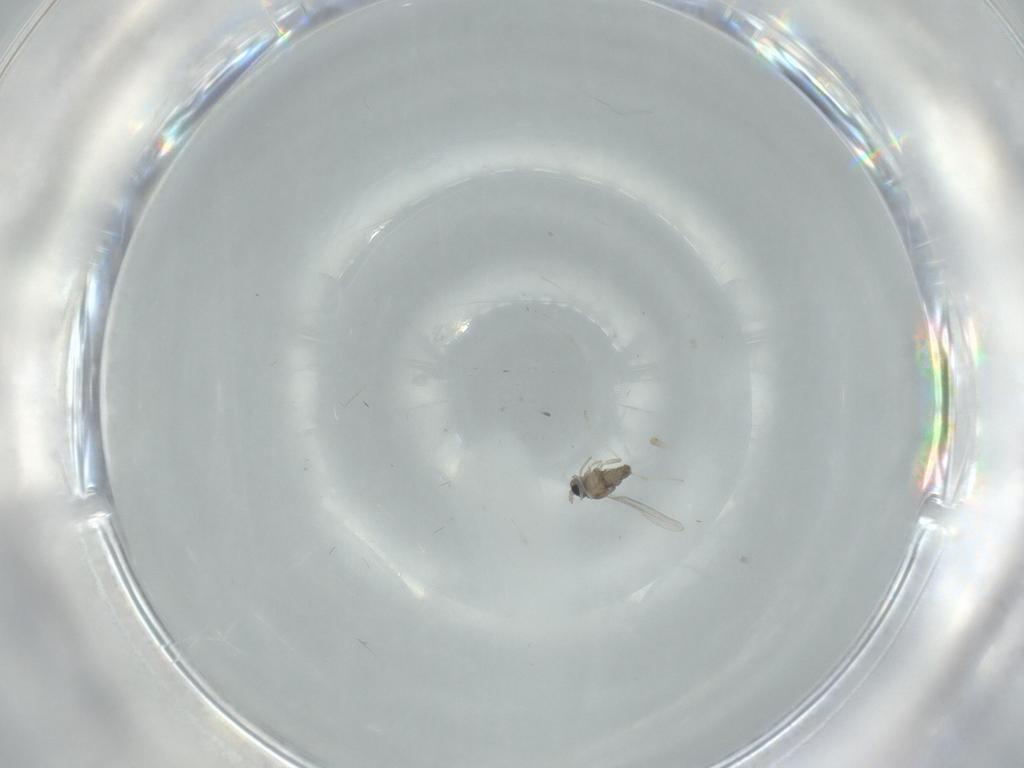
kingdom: Animalia
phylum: Arthropoda
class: Insecta
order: Diptera
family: Cecidomyiidae
